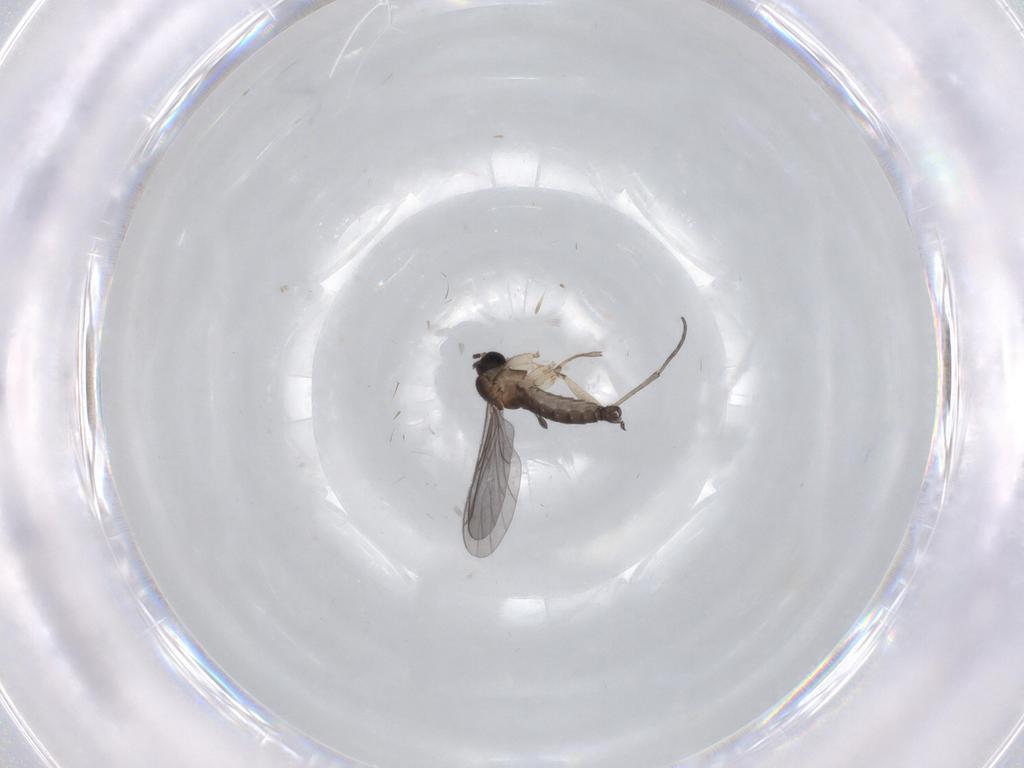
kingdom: Animalia
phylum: Arthropoda
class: Insecta
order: Diptera
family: Sciaridae
